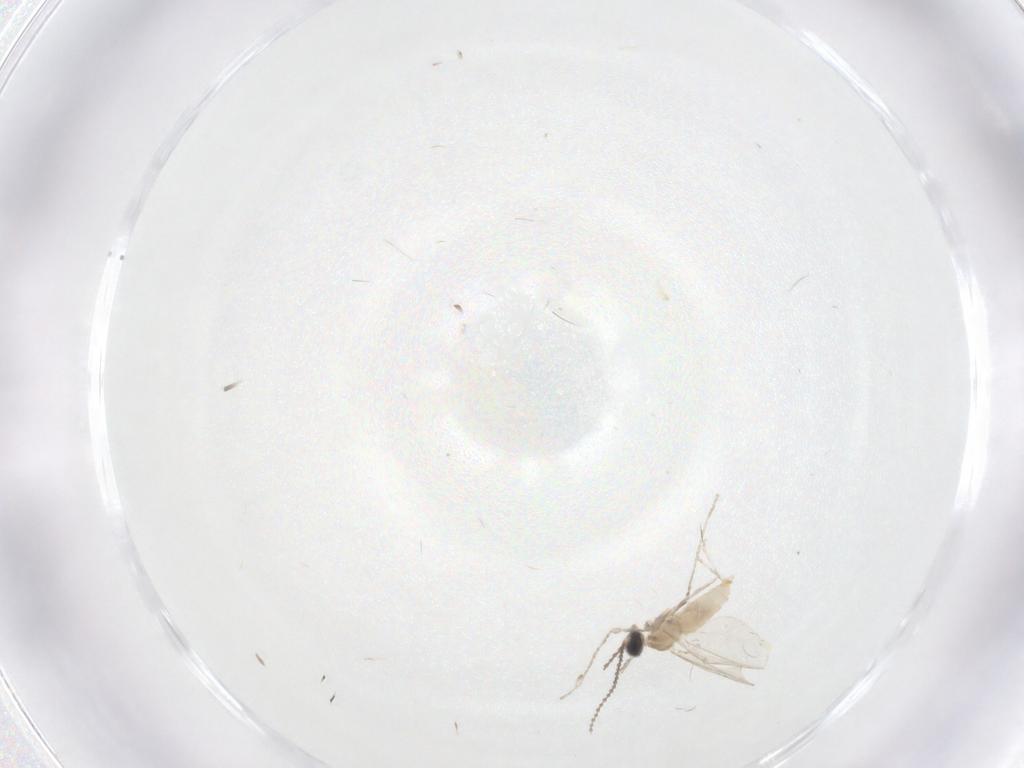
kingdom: Animalia
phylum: Arthropoda
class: Insecta
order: Diptera
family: Cecidomyiidae
